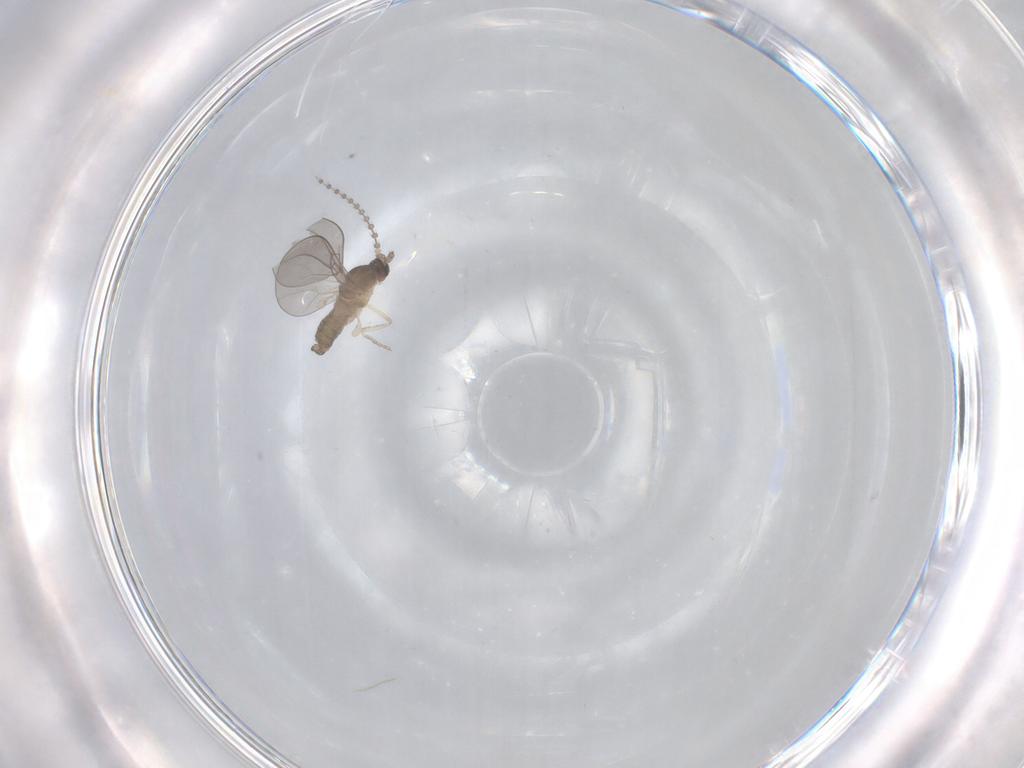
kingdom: Animalia
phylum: Arthropoda
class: Insecta
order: Diptera
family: Cecidomyiidae
